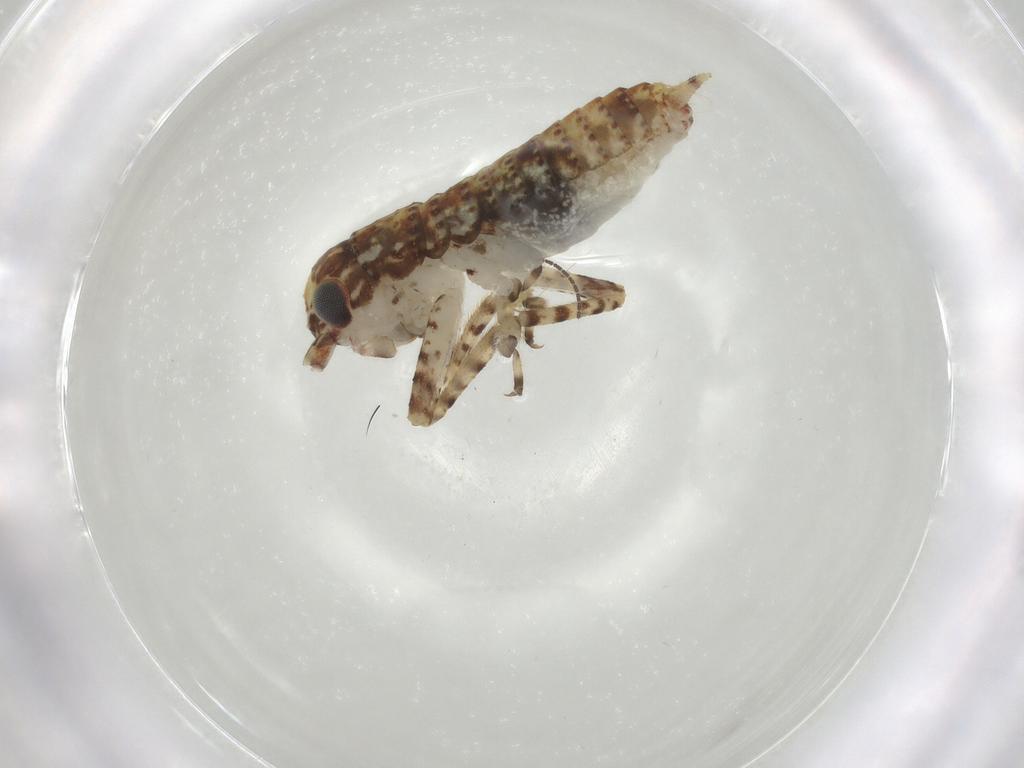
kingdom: Animalia
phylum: Arthropoda
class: Insecta
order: Orthoptera
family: Gryllidae
